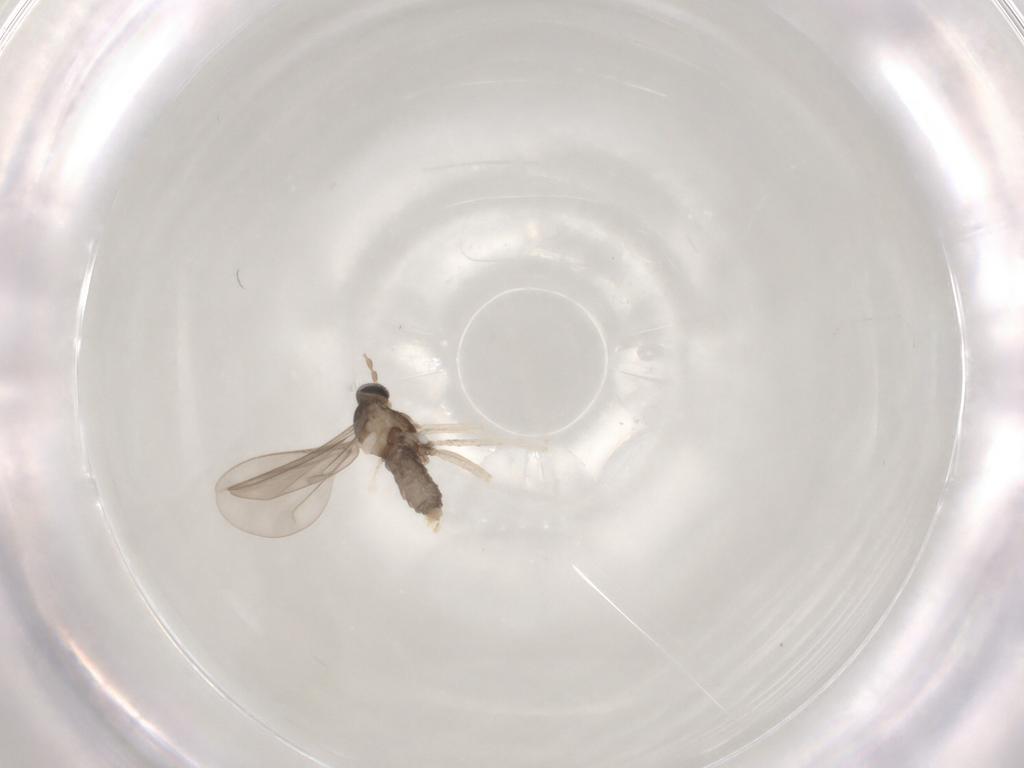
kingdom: Animalia
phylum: Arthropoda
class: Insecta
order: Diptera
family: Cecidomyiidae
